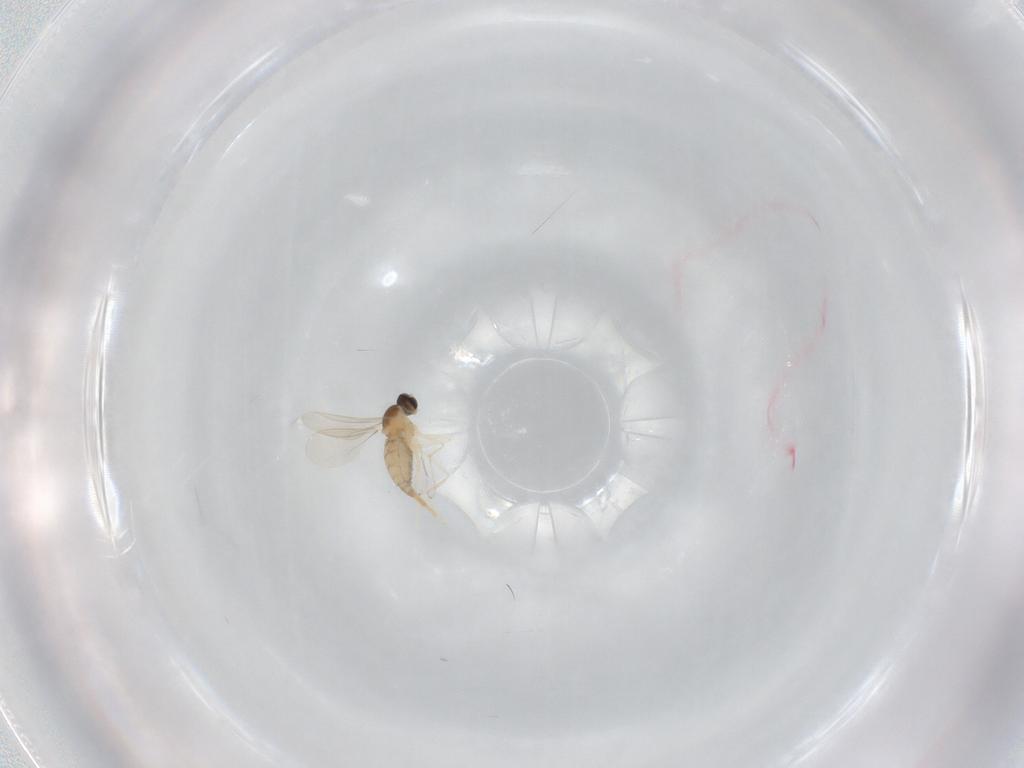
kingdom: Animalia
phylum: Arthropoda
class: Insecta
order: Diptera
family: Cecidomyiidae
